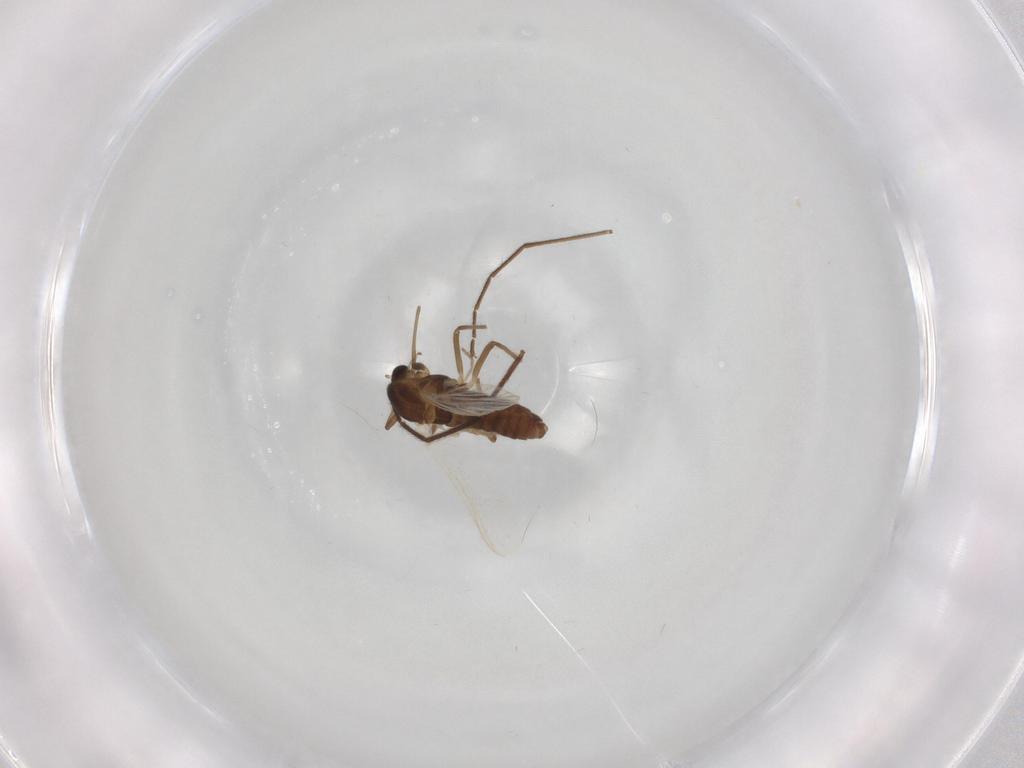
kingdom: Animalia
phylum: Arthropoda
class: Insecta
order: Diptera
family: Chironomidae
